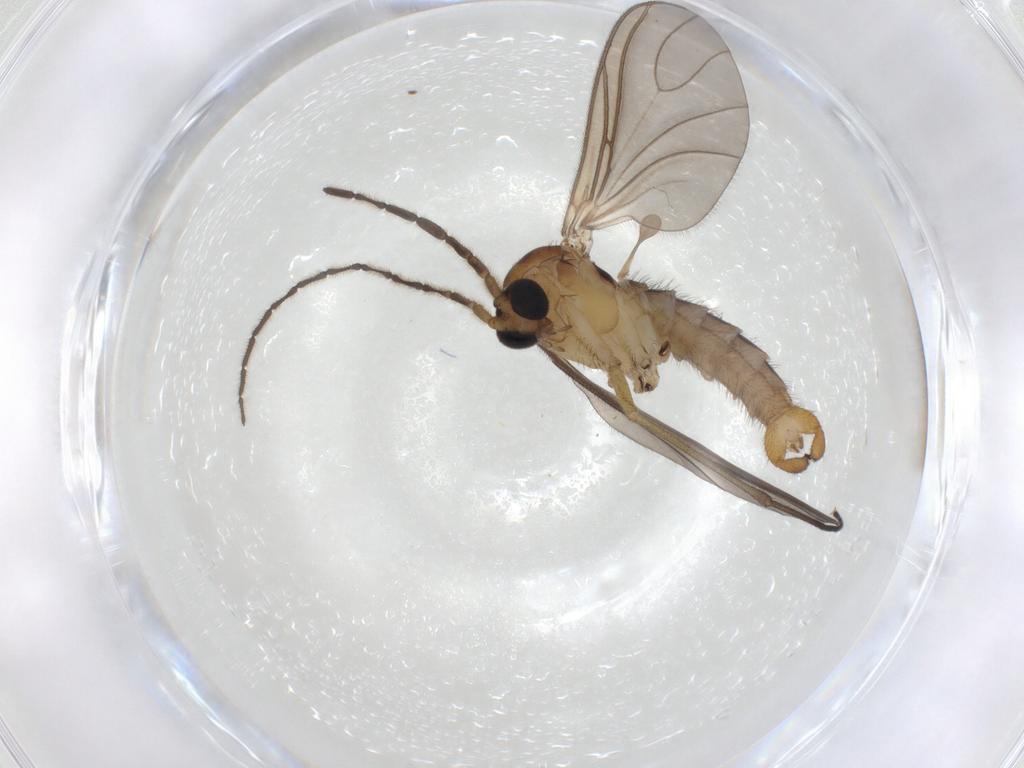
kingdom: Animalia
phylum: Arthropoda
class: Insecta
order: Diptera
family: Sciaridae
